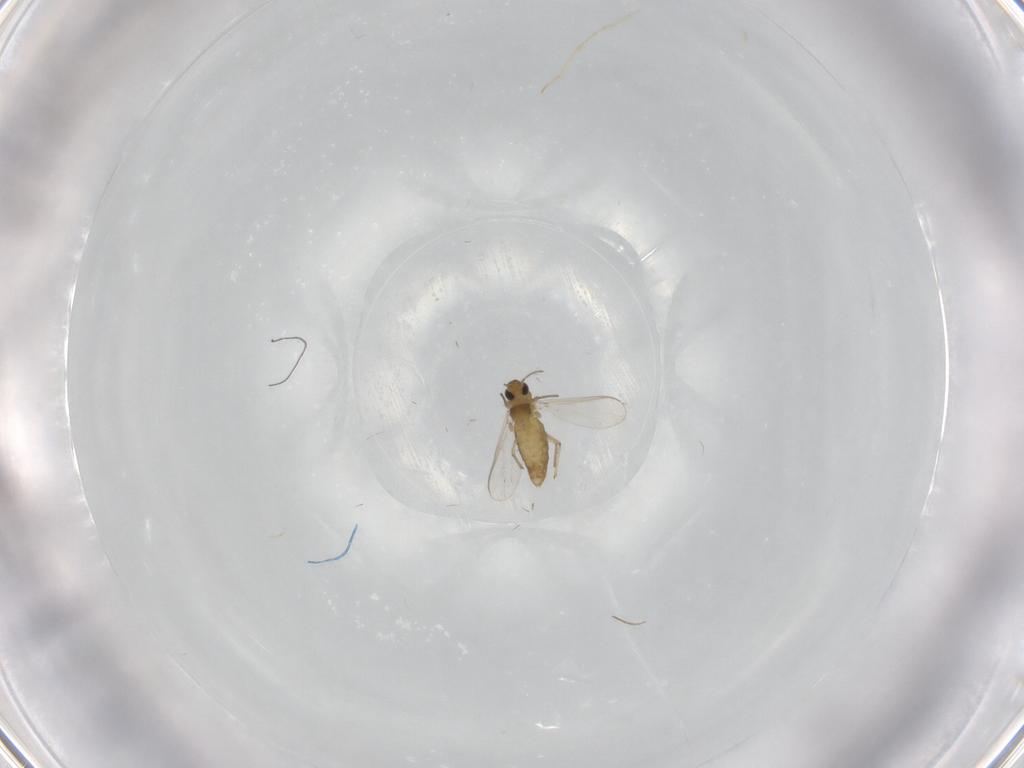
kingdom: Animalia
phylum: Arthropoda
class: Insecta
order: Diptera
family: Chironomidae
